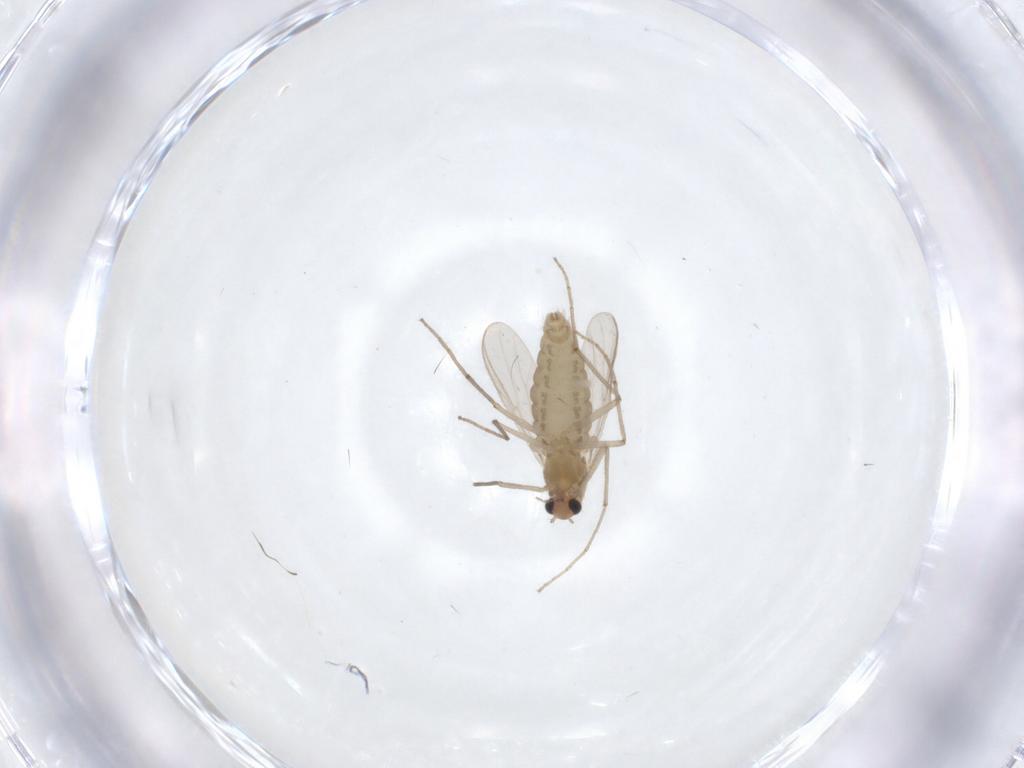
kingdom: Animalia
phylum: Arthropoda
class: Insecta
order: Diptera
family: Chironomidae
